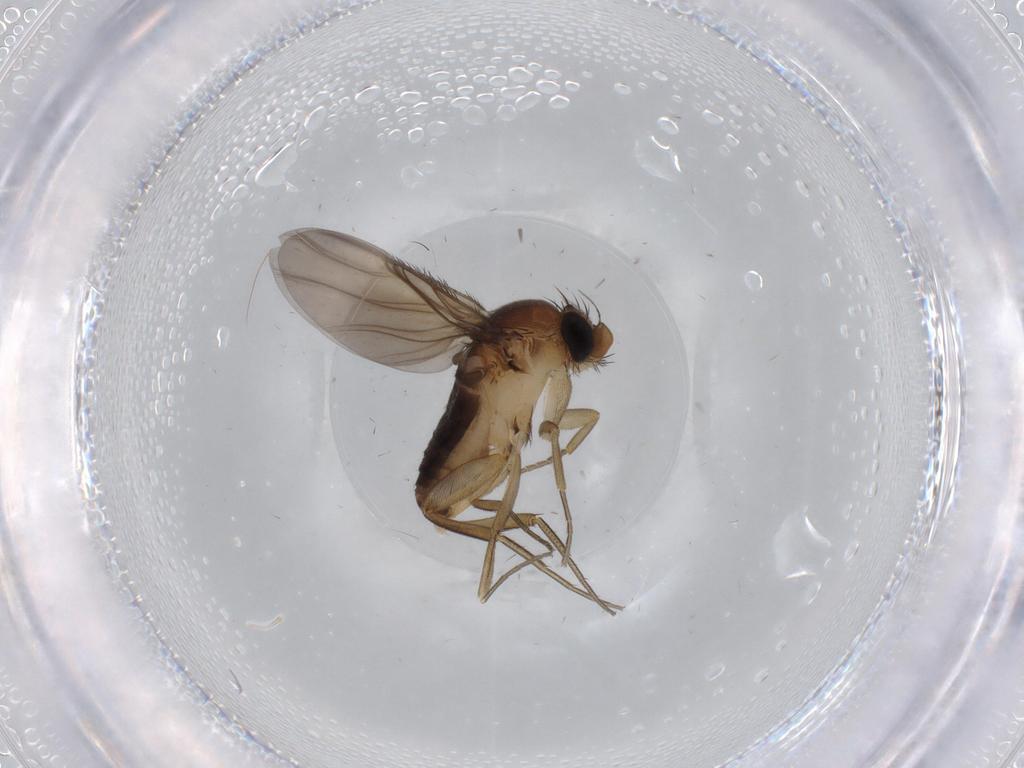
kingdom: Animalia
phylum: Arthropoda
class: Insecta
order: Diptera
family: Phoridae
